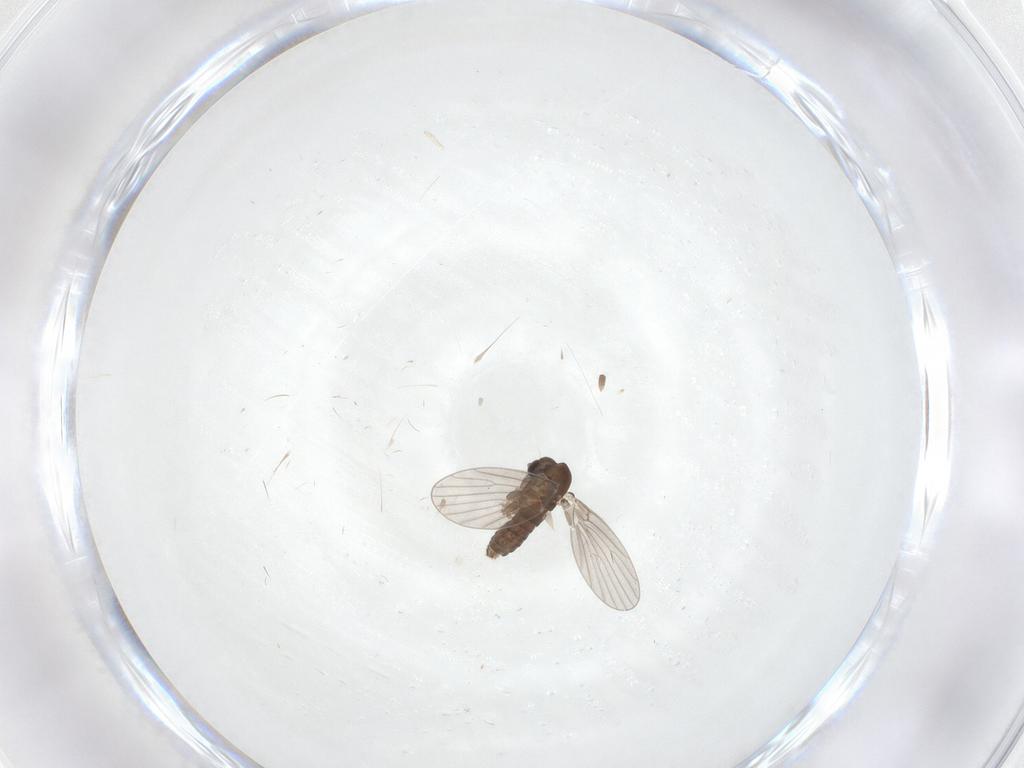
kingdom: Animalia
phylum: Arthropoda
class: Insecta
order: Diptera
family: Cecidomyiidae
